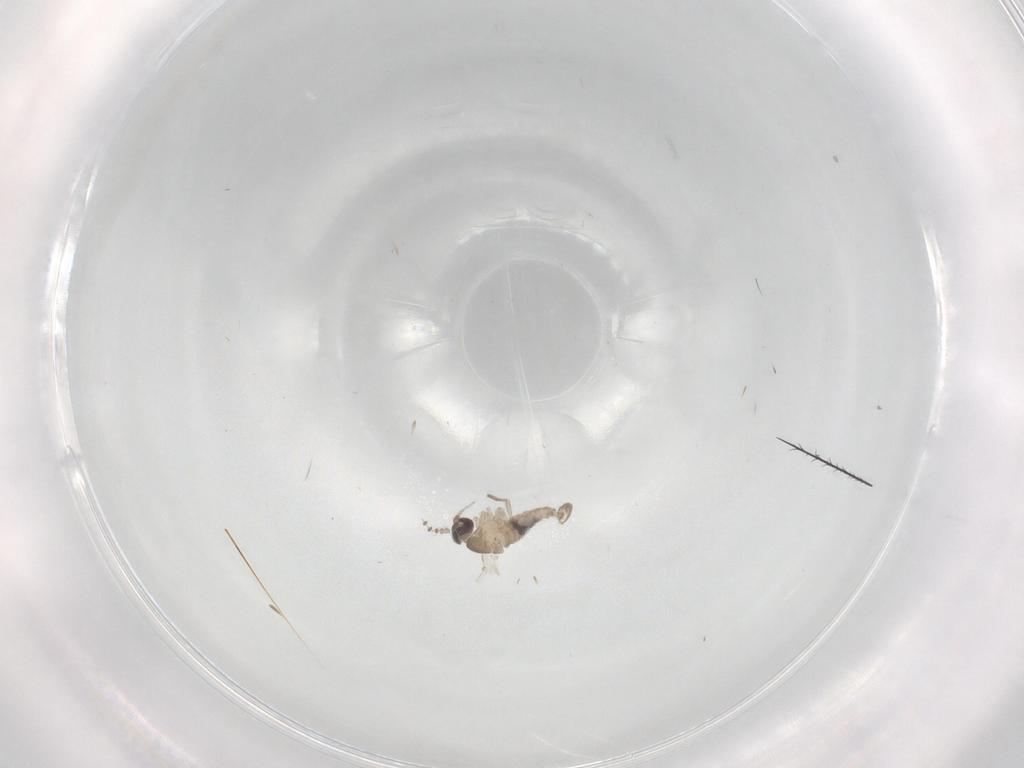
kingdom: Animalia
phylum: Arthropoda
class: Insecta
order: Diptera
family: Psychodidae
